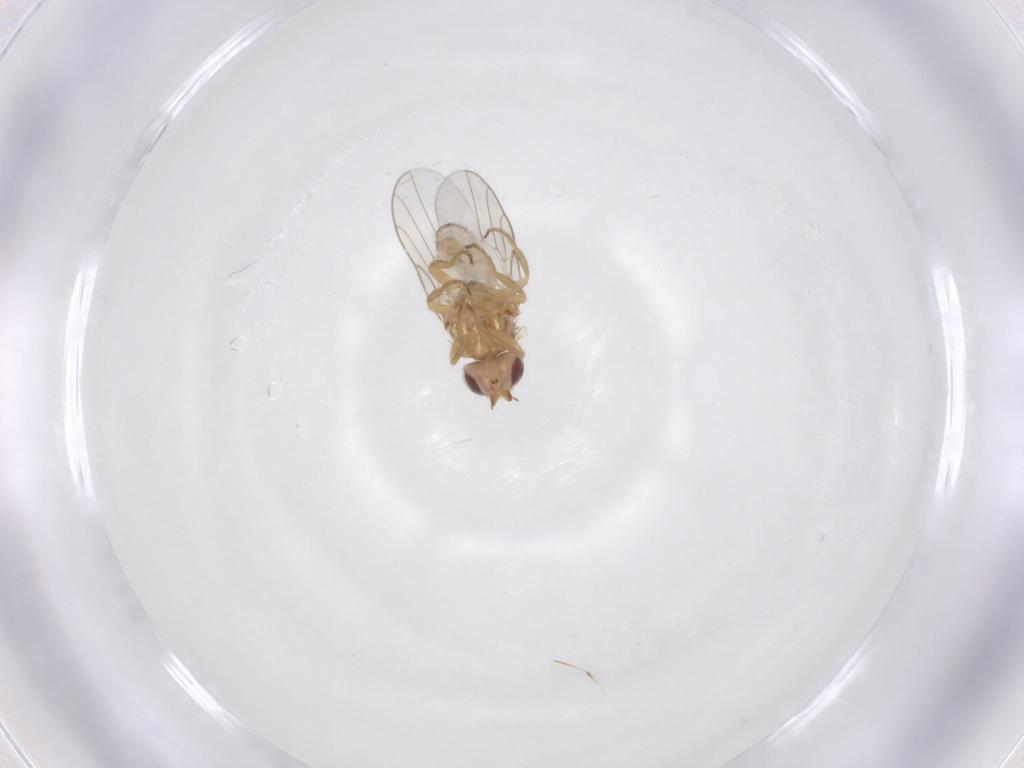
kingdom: Animalia
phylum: Arthropoda
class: Insecta
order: Diptera
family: Chloropidae
